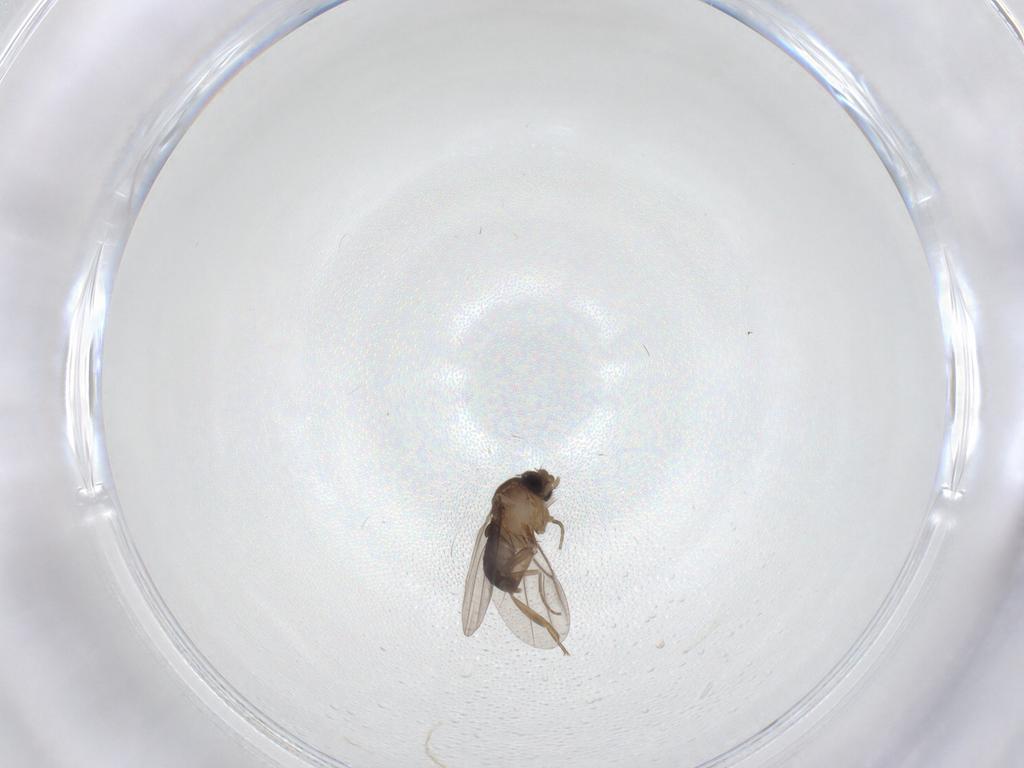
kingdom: Animalia
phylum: Arthropoda
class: Insecta
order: Diptera
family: Phoridae
